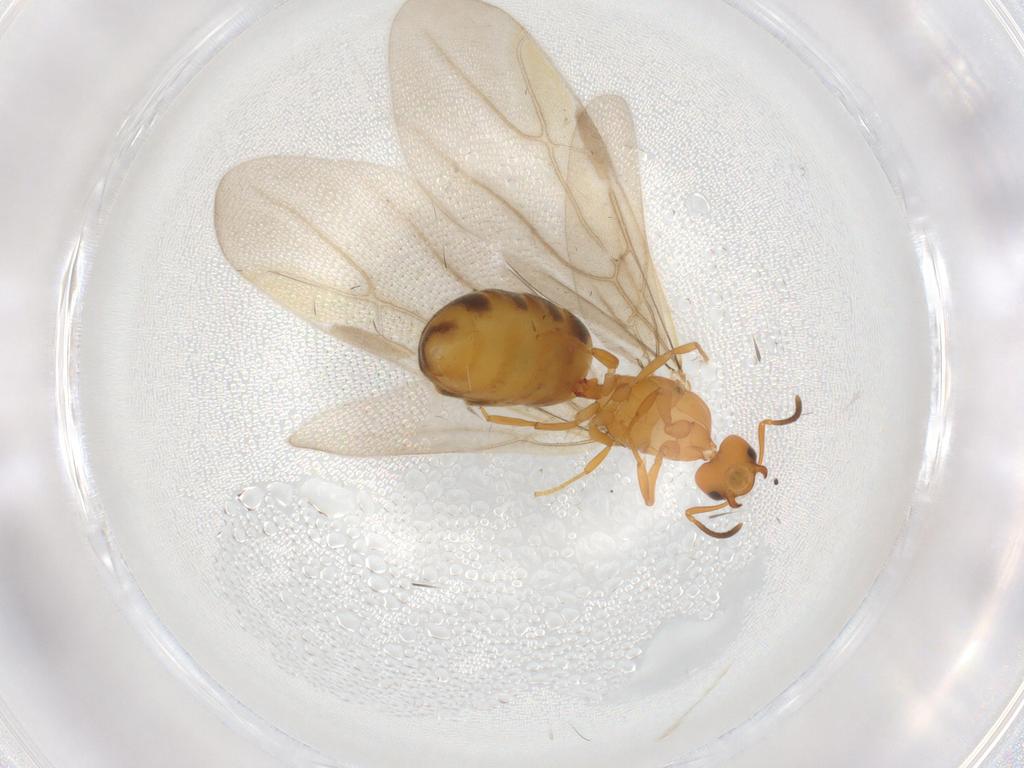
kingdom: Animalia
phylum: Arthropoda
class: Insecta
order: Hymenoptera
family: Formicidae
